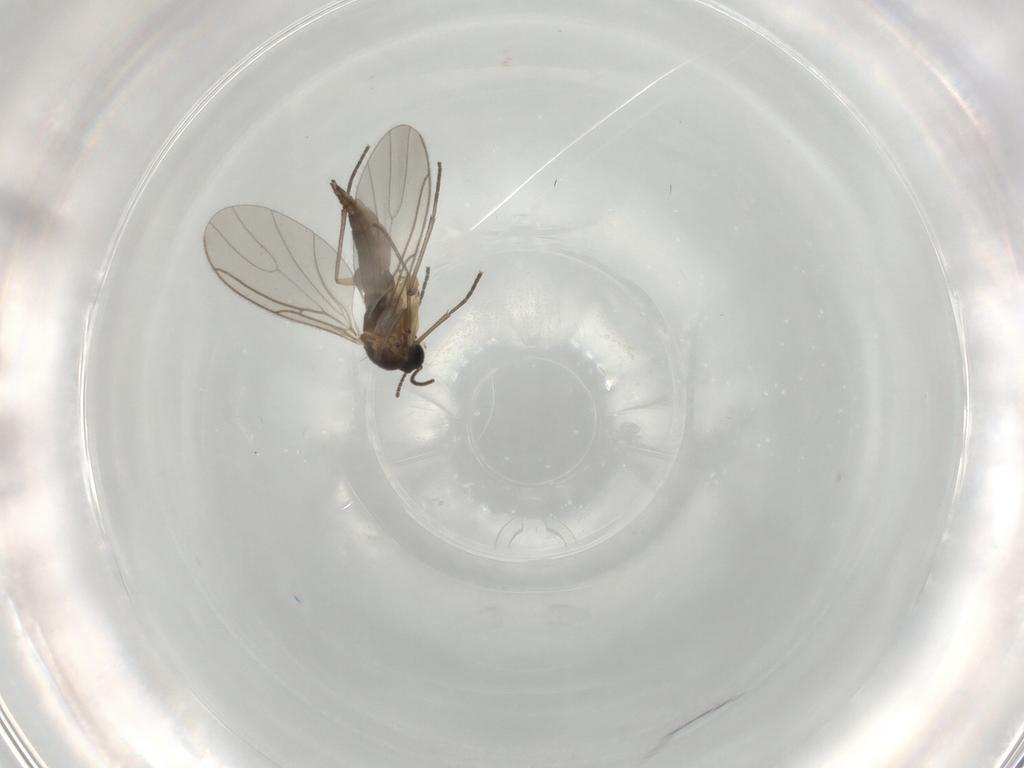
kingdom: Animalia
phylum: Arthropoda
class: Insecta
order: Diptera
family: Sciaridae
